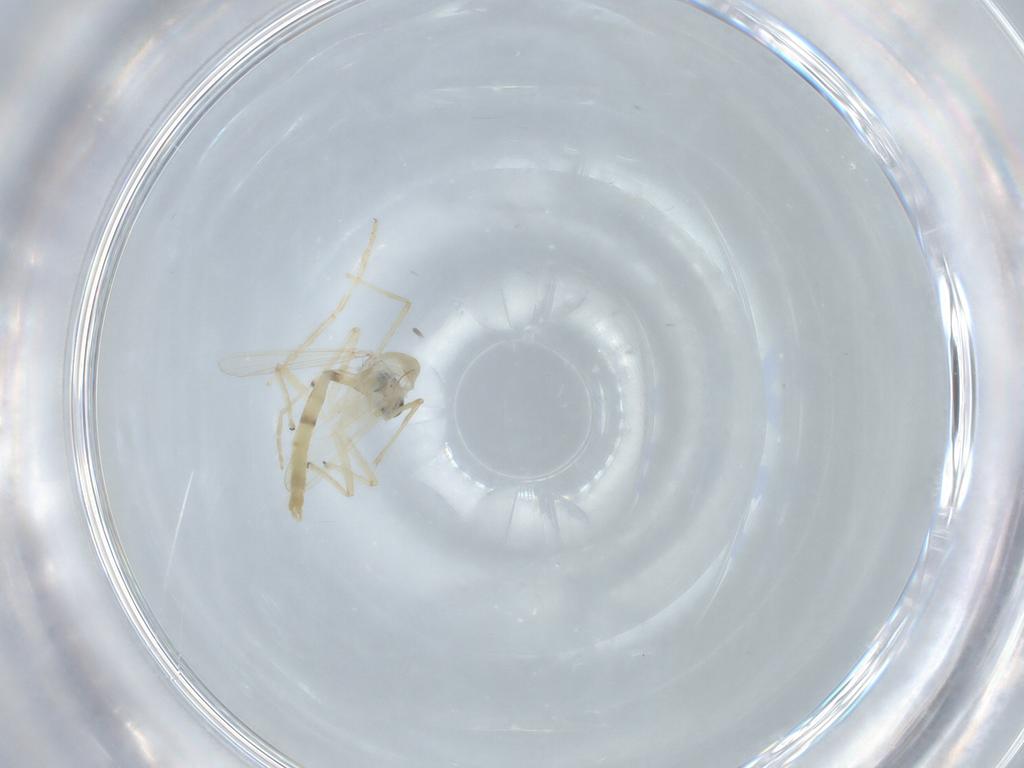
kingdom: Animalia
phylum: Arthropoda
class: Insecta
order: Diptera
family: Chironomidae
